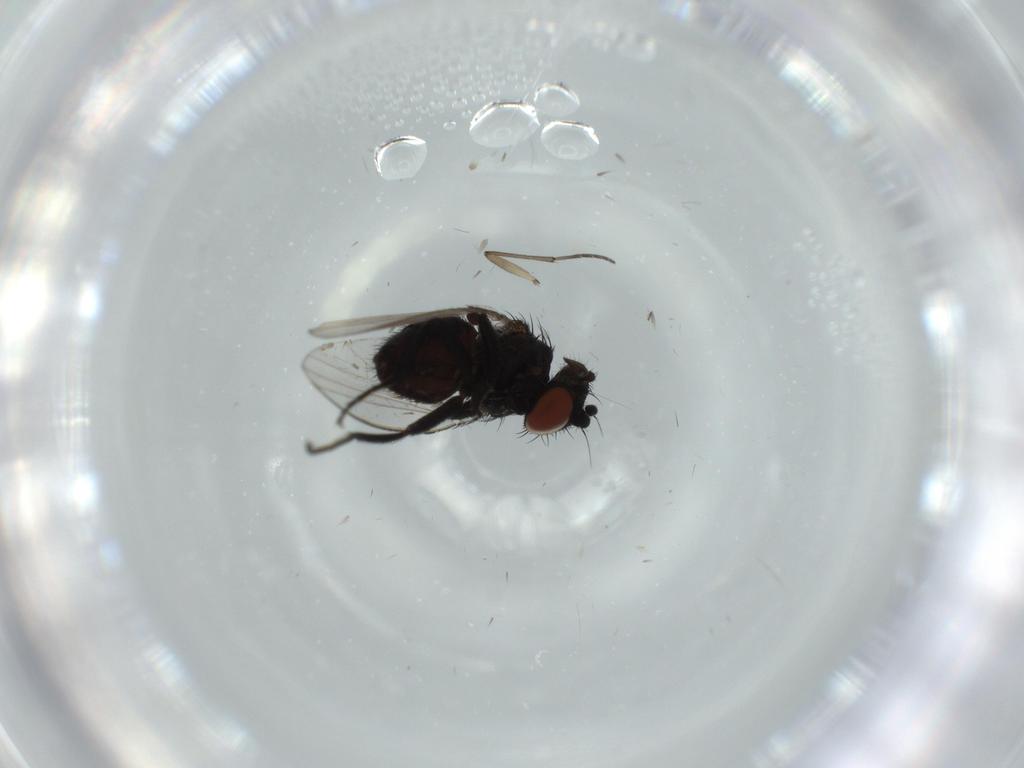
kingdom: Animalia
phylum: Arthropoda
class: Insecta
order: Diptera
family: Sciaridae
